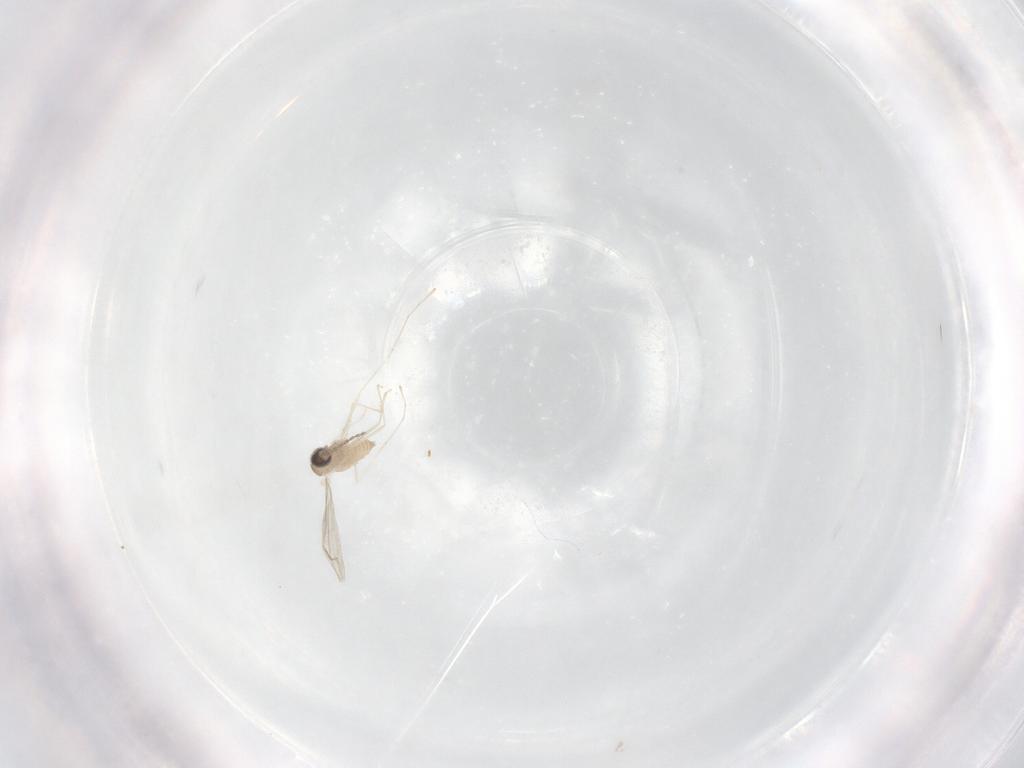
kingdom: Animalia
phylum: Arthropoda
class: Insecta
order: Diptera
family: Cecidomyiidae
